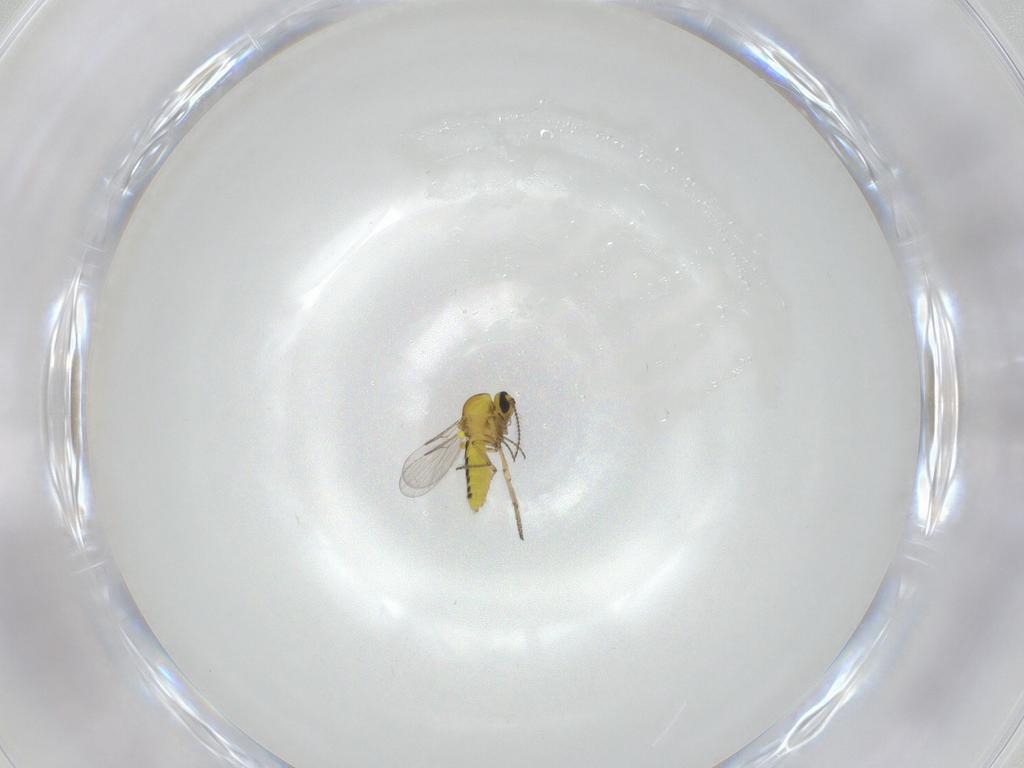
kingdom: Animalia
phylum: Arthropoda
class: Insecta
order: Diptera
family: Ceratopogonidae
